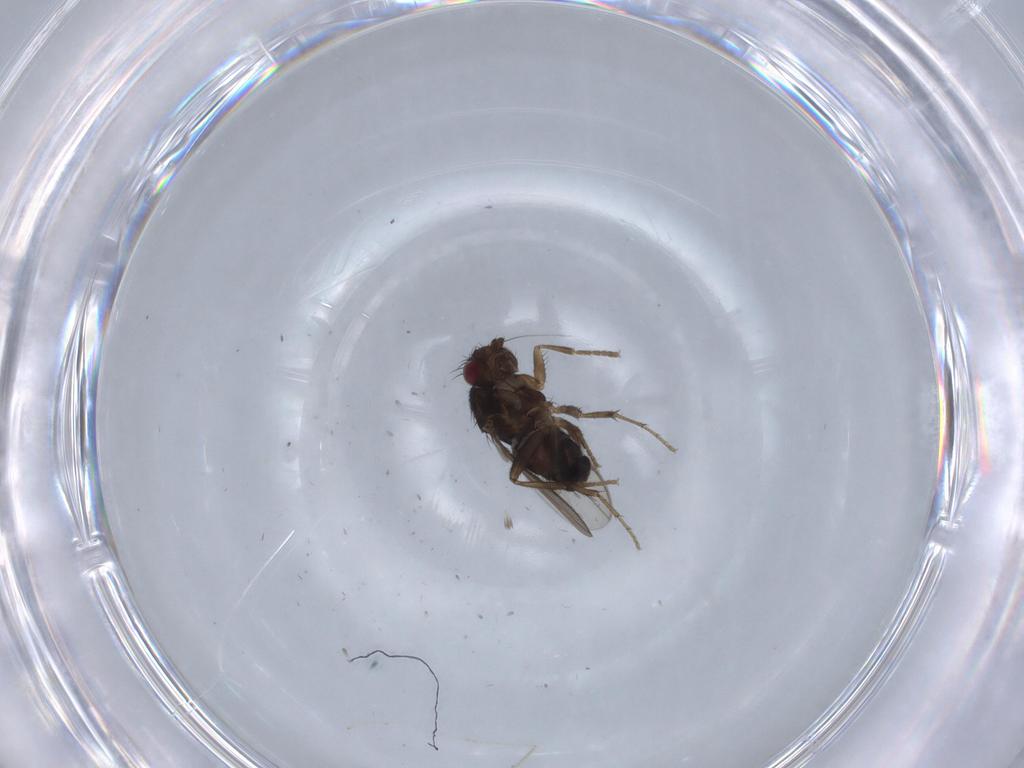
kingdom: Animalia
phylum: Arthropoda
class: Insecta
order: Diptera
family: Cecidomyiidae
